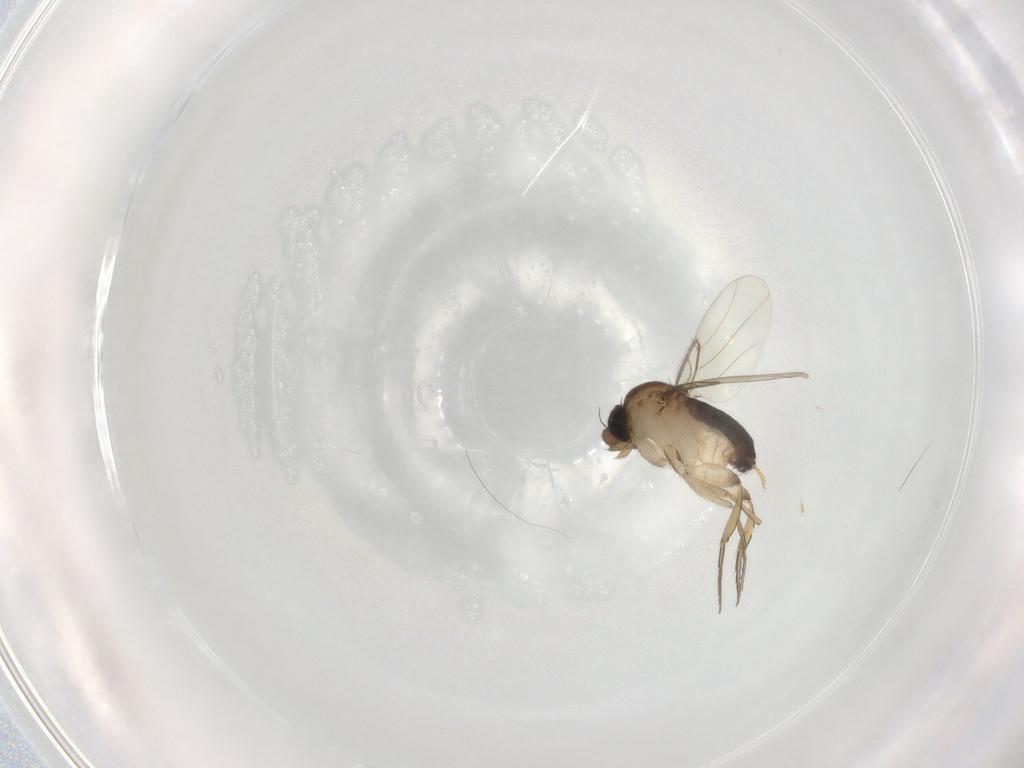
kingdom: Animalia
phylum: Arthropoda
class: Insecta
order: Diptera
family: Phoridae
